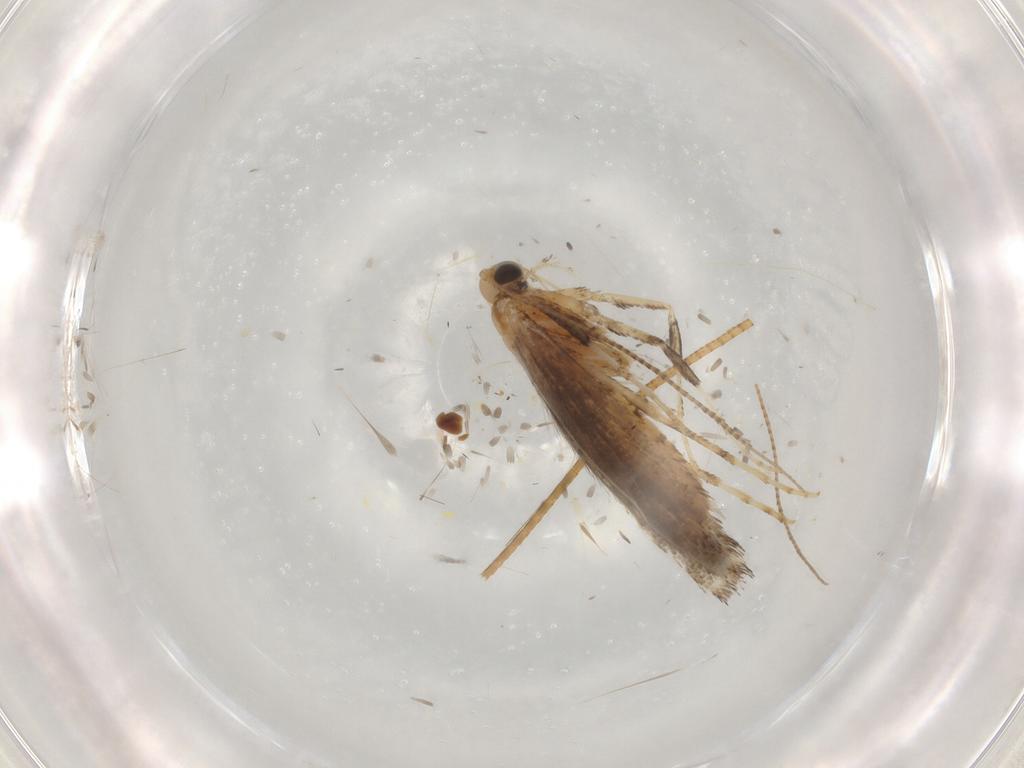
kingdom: Animalia
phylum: Arthropoda
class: Insecta
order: Lepidoptera
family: Gracillariidae
